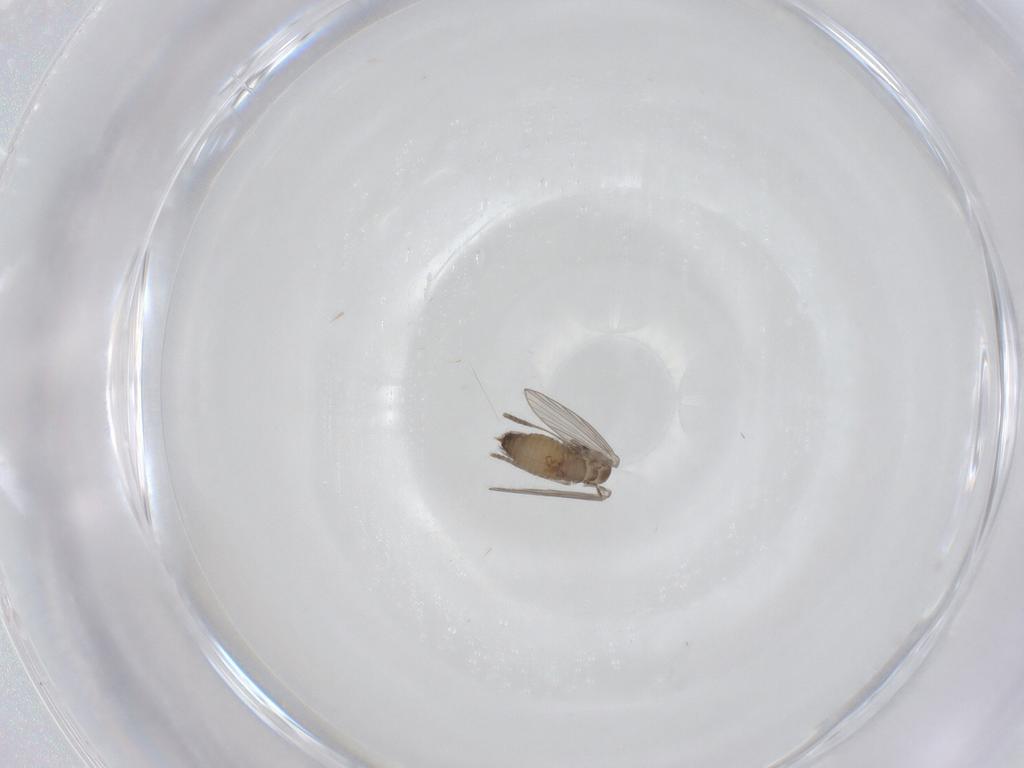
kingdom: Animalia
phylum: Arthropoda
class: Insecta
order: Diptera
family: Psychodidae
